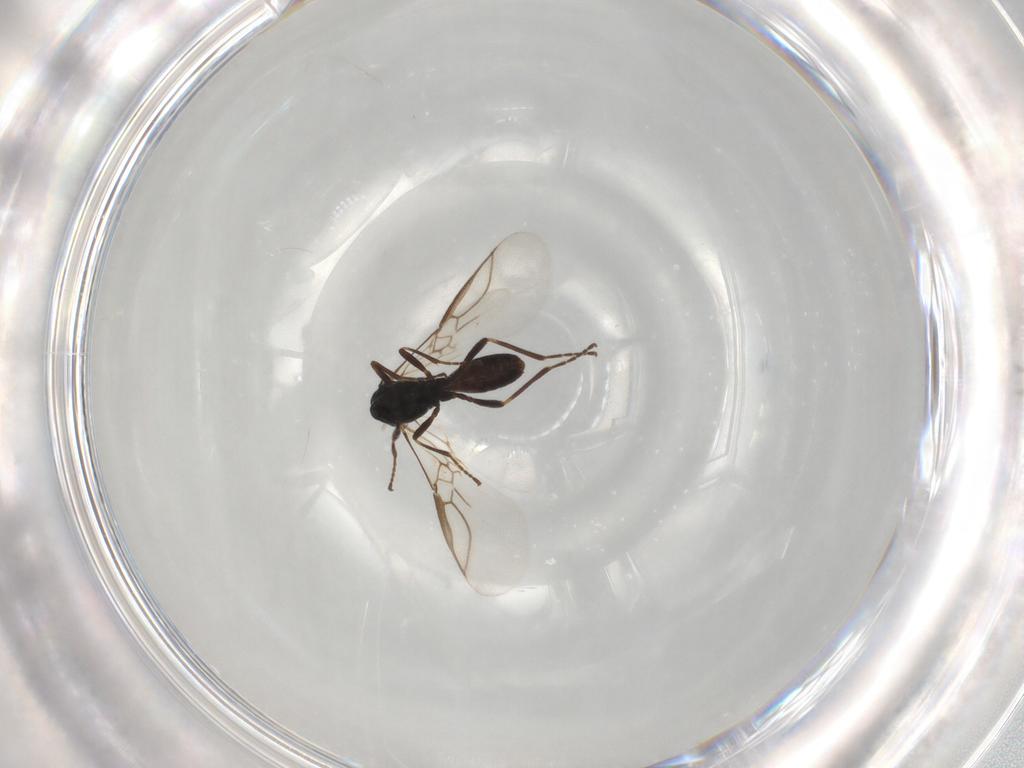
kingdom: Animalia
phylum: Arthropoda
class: Insecta
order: Hymenoptera
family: Braconidae
